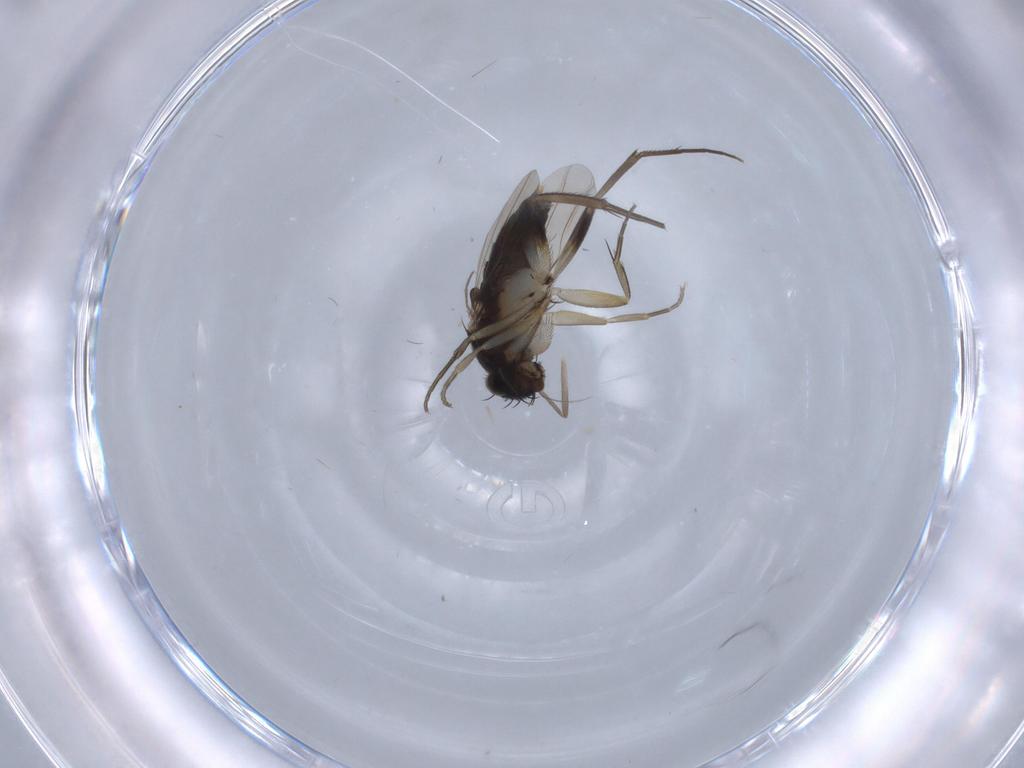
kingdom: Animalia
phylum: Arthropoda
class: Insecta
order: Diptera
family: Phoridae
